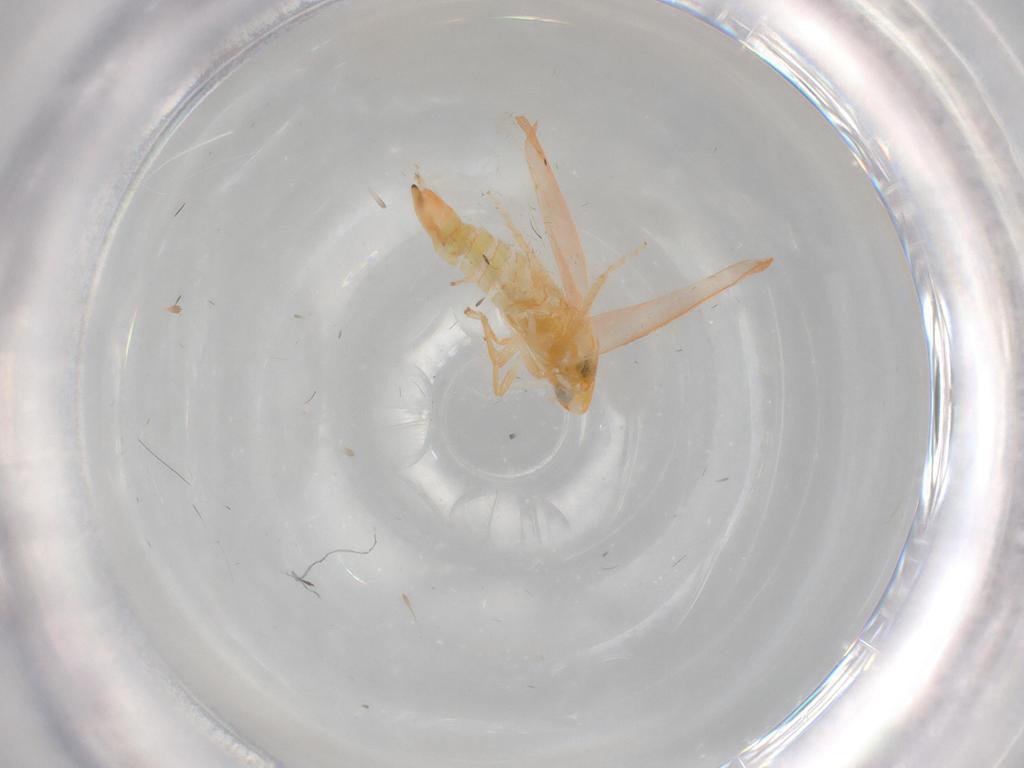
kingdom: Animalia
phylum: Arthropoda
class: Insecta
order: Hemiptera
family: Cicadellidae
